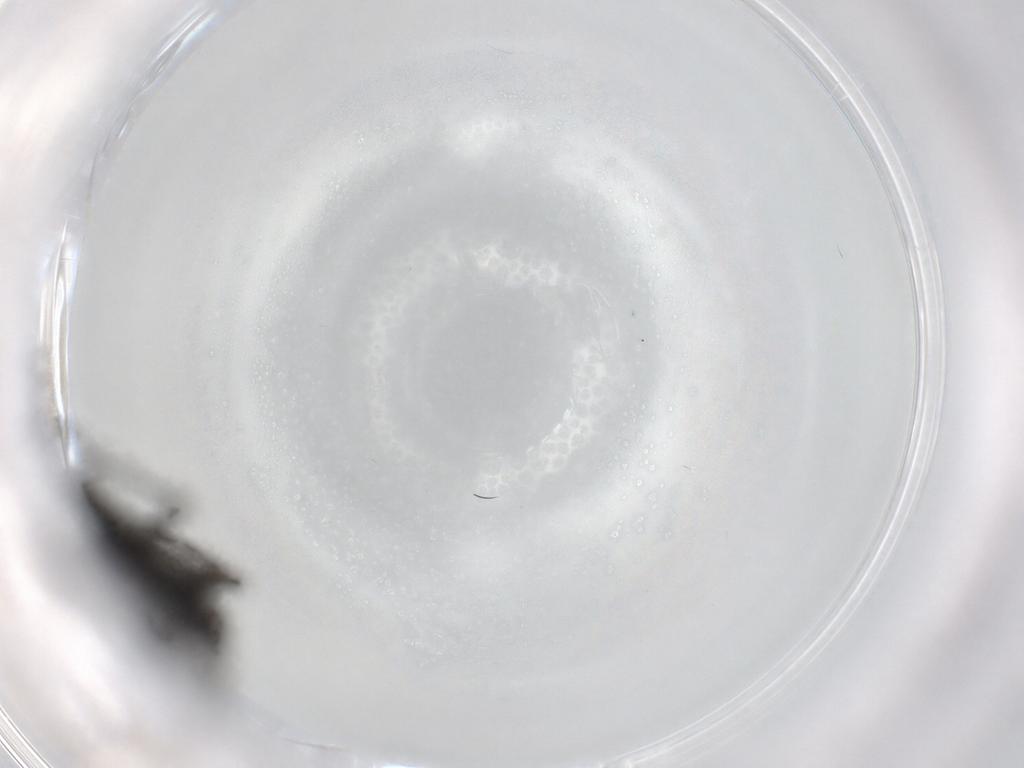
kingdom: Animalia
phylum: Arthropoda
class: Insecta
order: Diptera
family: Sciaridae
